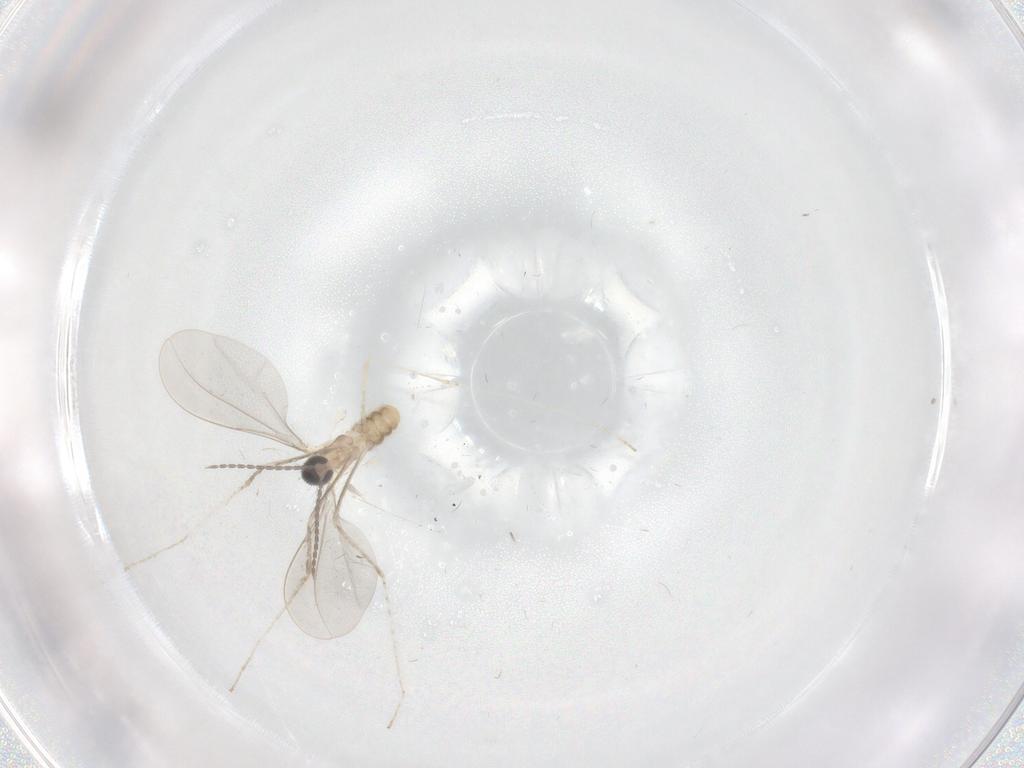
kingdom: Animalia
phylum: Arthropoda
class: Insecta
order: Diptera
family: Cecidomyiidae
